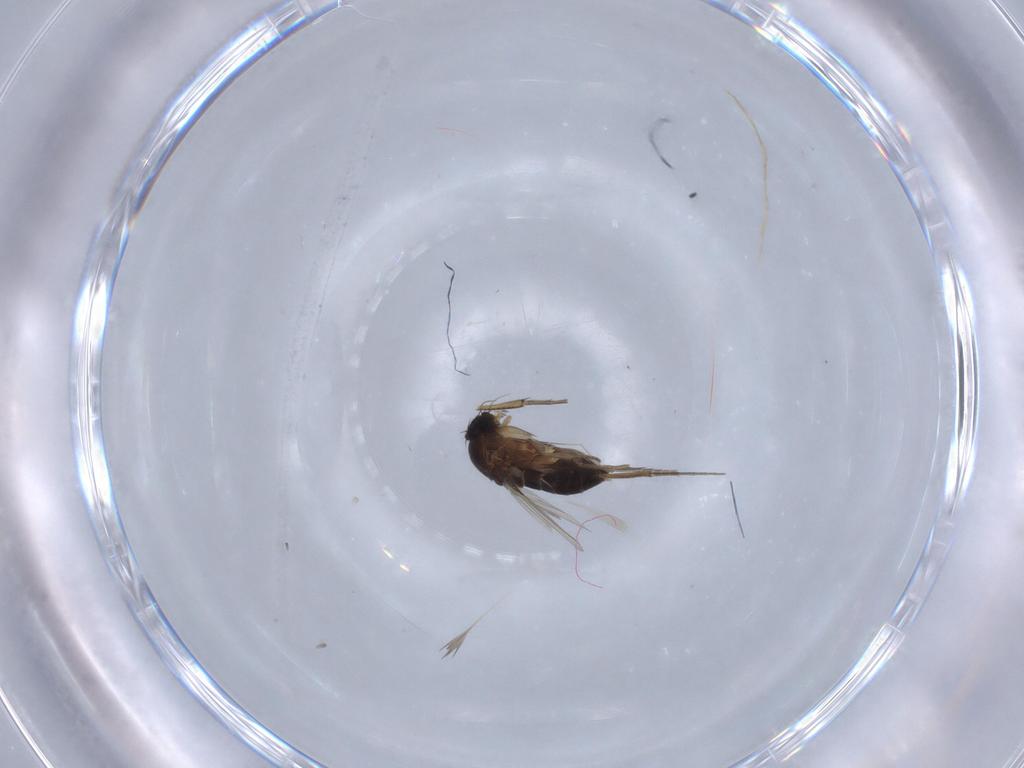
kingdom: Animalia
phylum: Arthropoda
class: Insecta
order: Diptera
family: Phoridae
